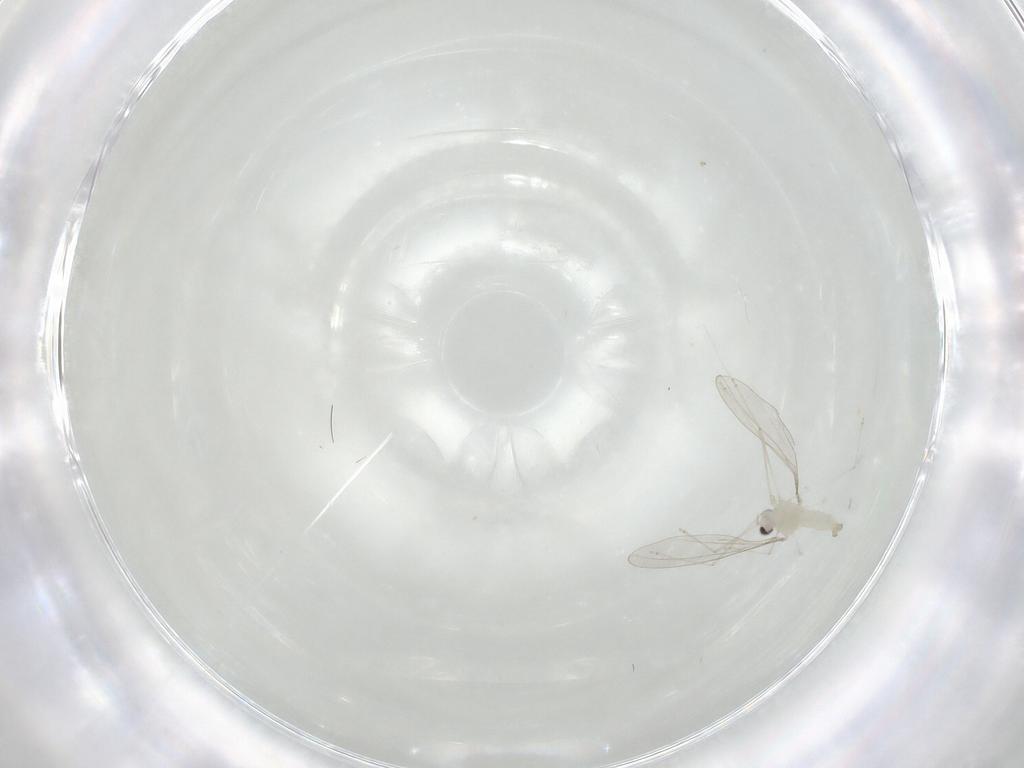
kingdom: Animalia
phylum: Arthropoda
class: Insecta
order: Diptera
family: Cecidomyiidae
